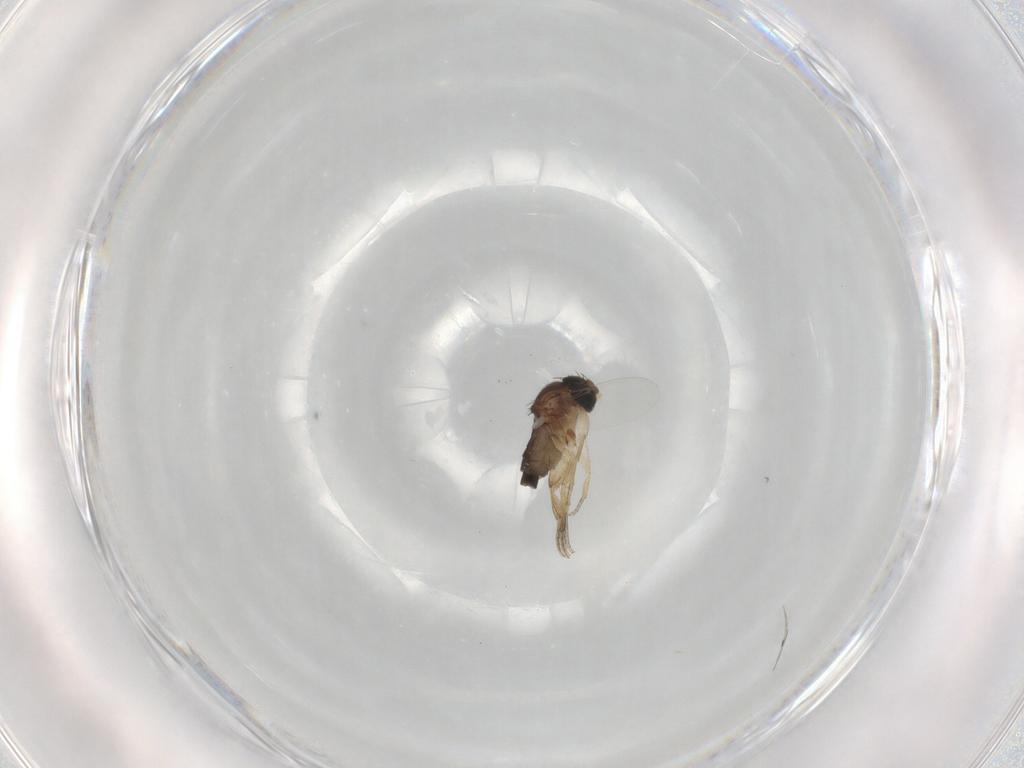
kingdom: Animalia
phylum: Arthropoda
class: Insecta
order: Diptera
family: Phoridae
